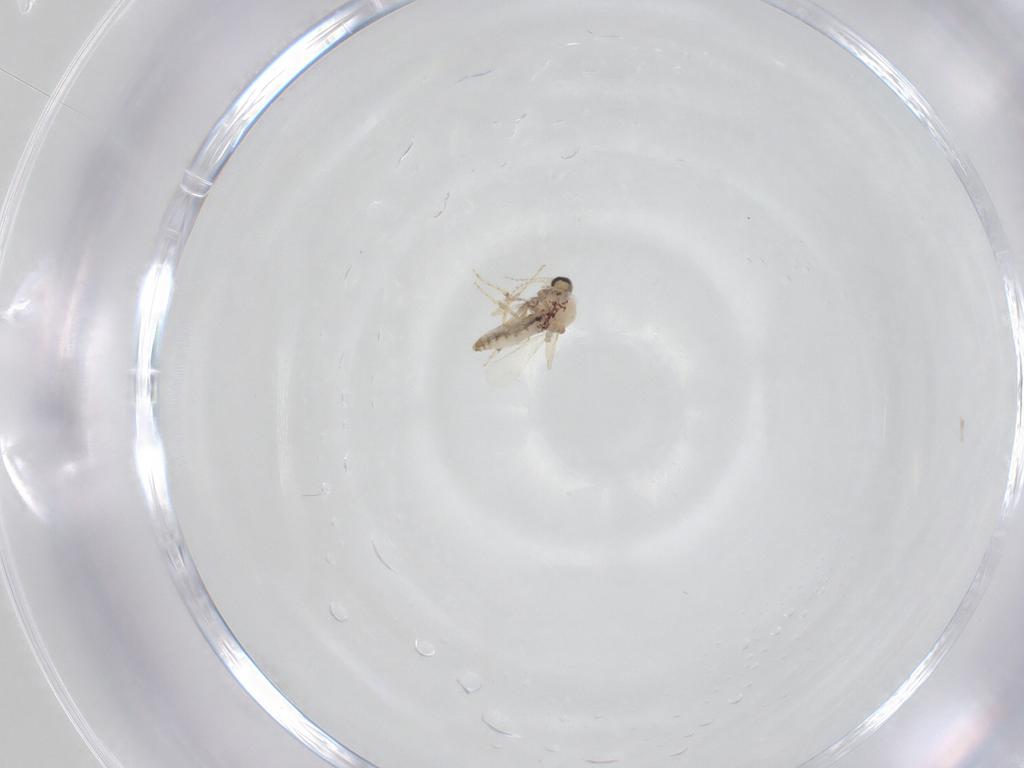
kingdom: Animalia
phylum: Arthropoda
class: Insecta
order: Diptera
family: Ceratopogonidae
